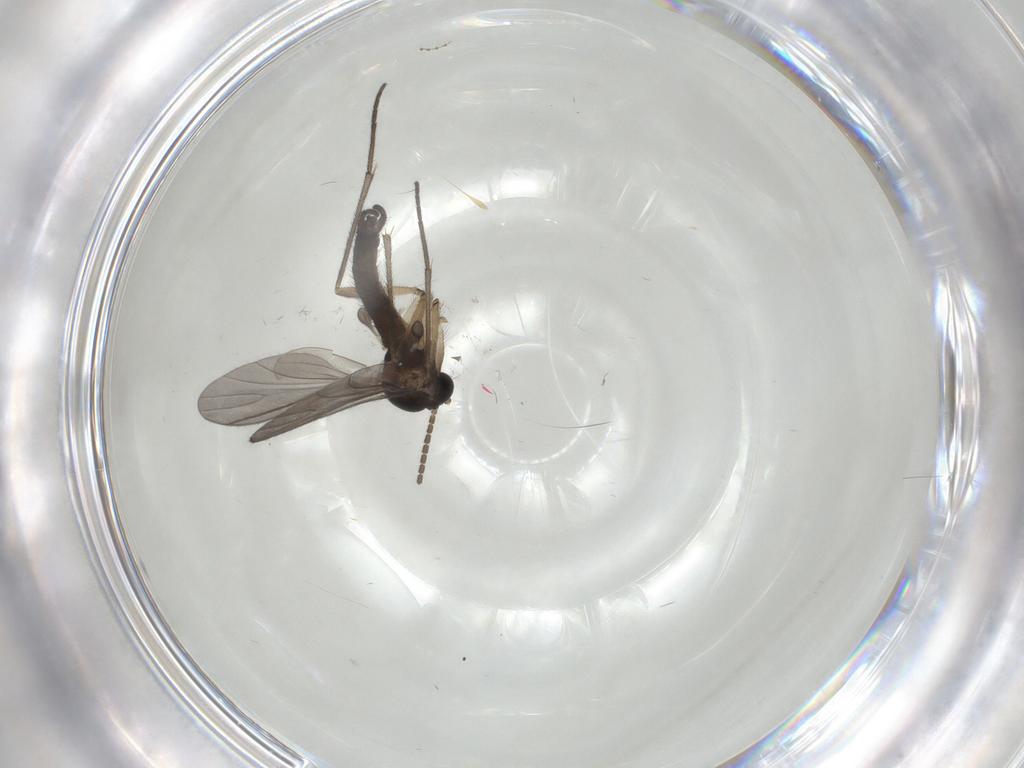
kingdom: Animalia
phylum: Arthropoda
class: Insecta
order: Diptera
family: Sciaridae
